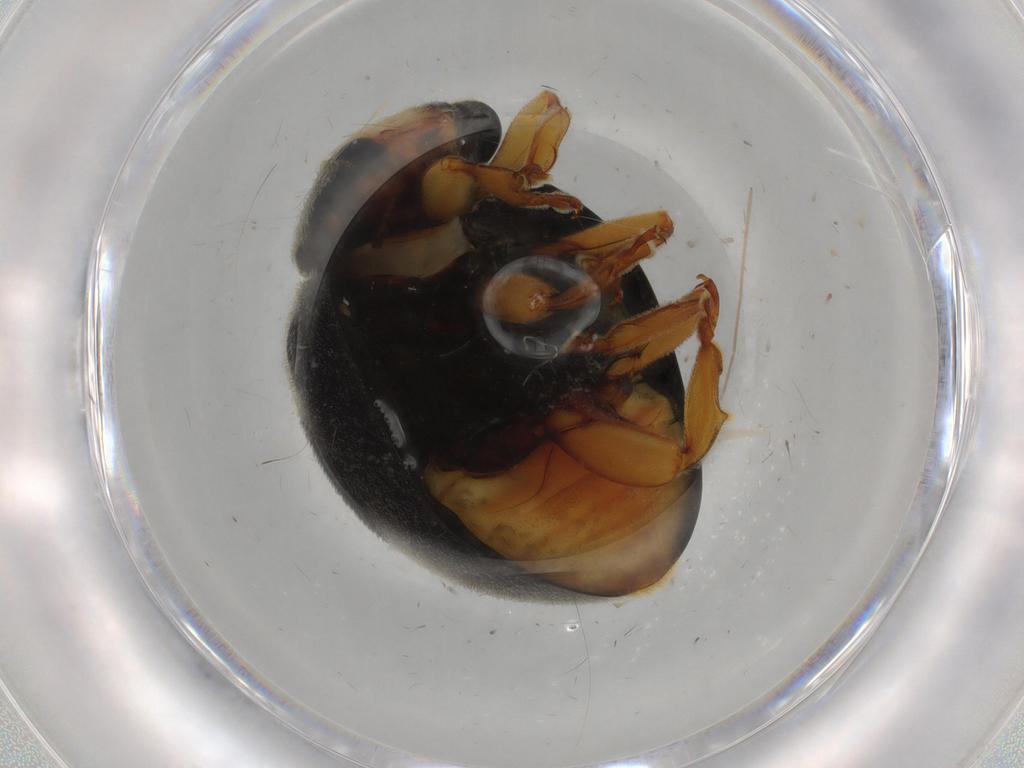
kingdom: Animalia
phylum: Arthropoda
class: Insecta
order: Coleoptera
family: Coccinellidae
